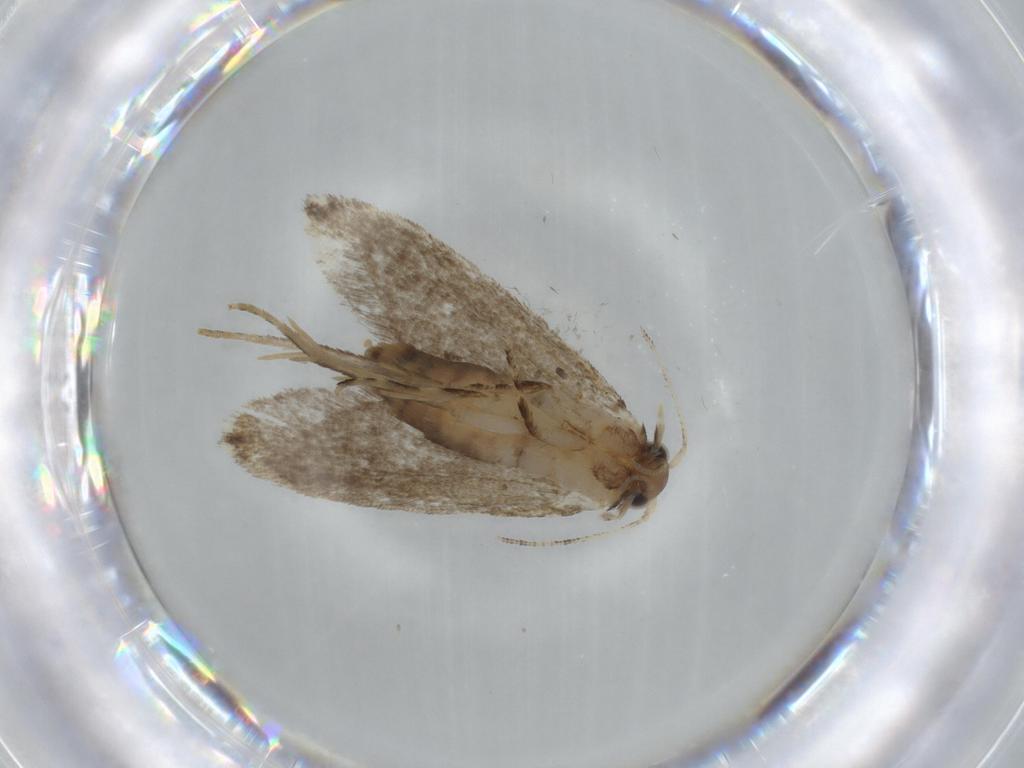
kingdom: Animalia
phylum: Arthropoda
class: Insecta
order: Lepidoptera
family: Tineidae
